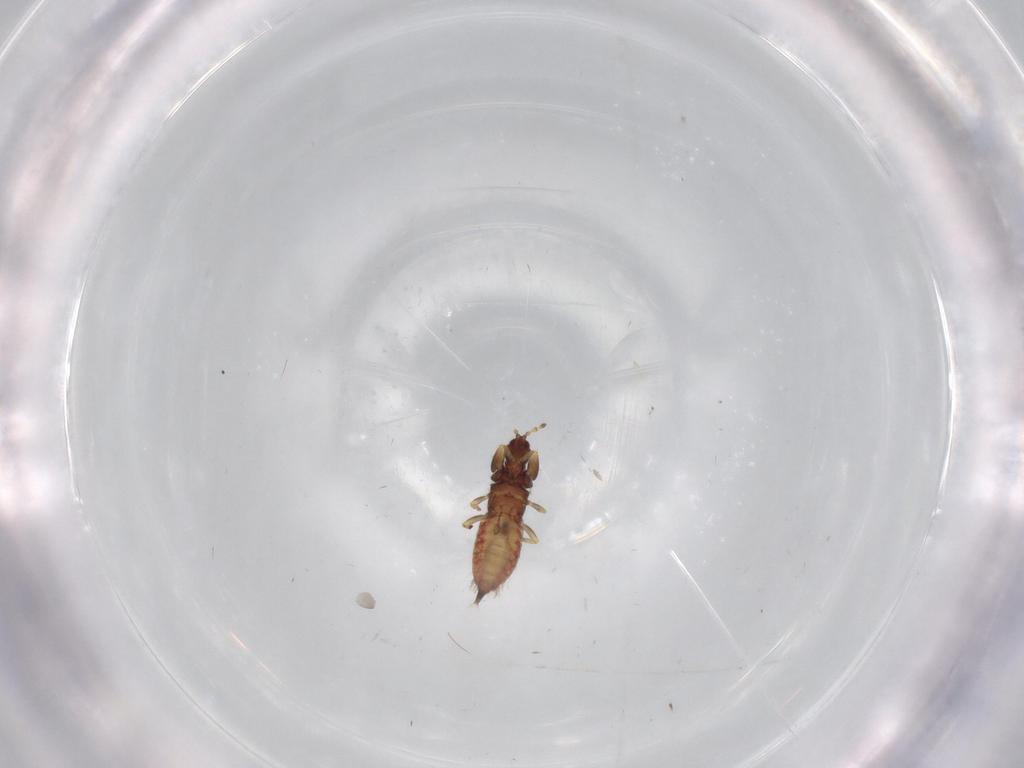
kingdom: Animalia
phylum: Arthropoda
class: Insecta
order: Thysanoptera
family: Phlaeothripidae
